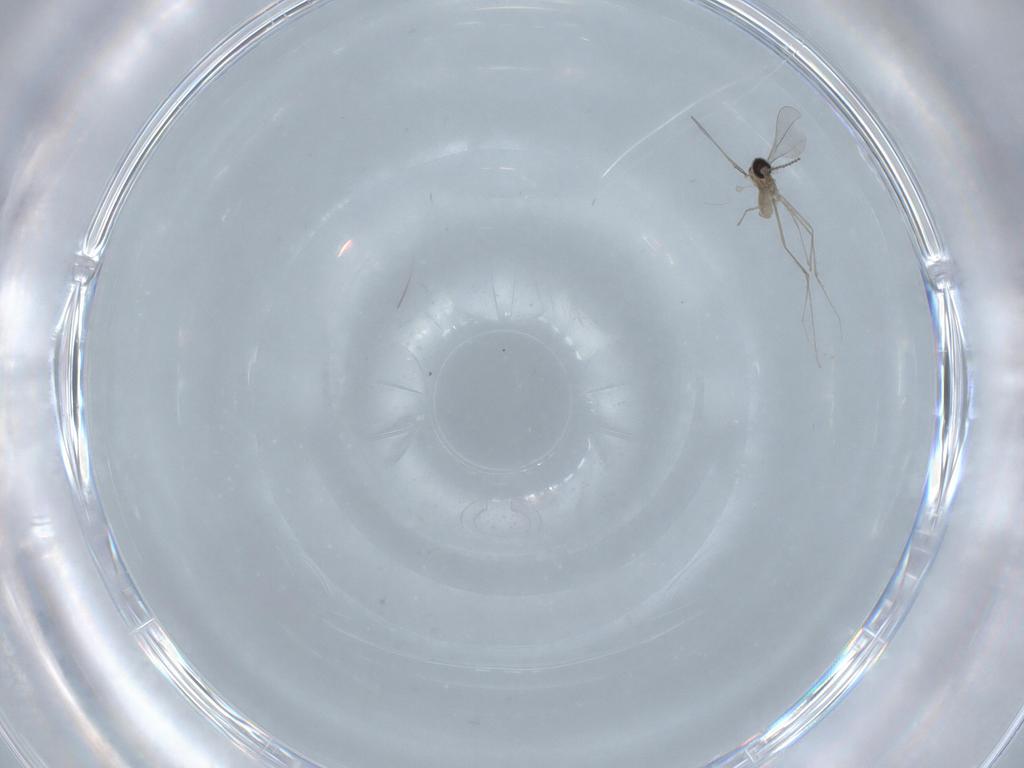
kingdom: Animalia
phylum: Arthropoda
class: Insecta
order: Diptera
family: Cecidomyiidae
